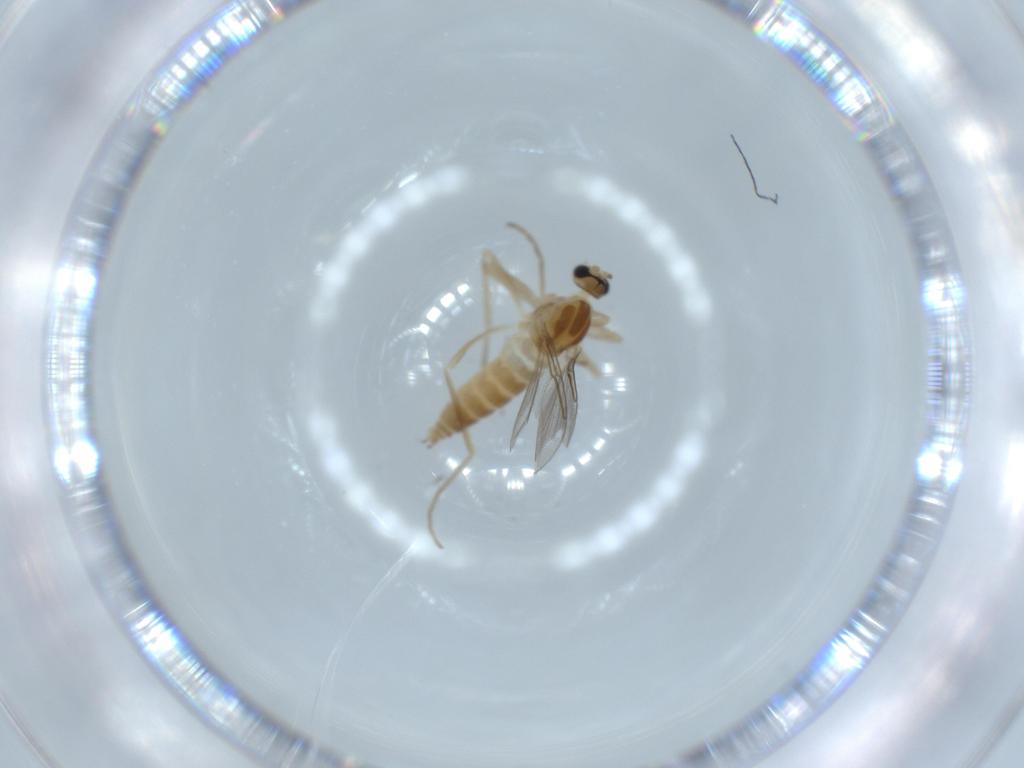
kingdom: Animalia
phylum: Arthropoda
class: Insecta
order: Diptera
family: Cecidomyiidae
